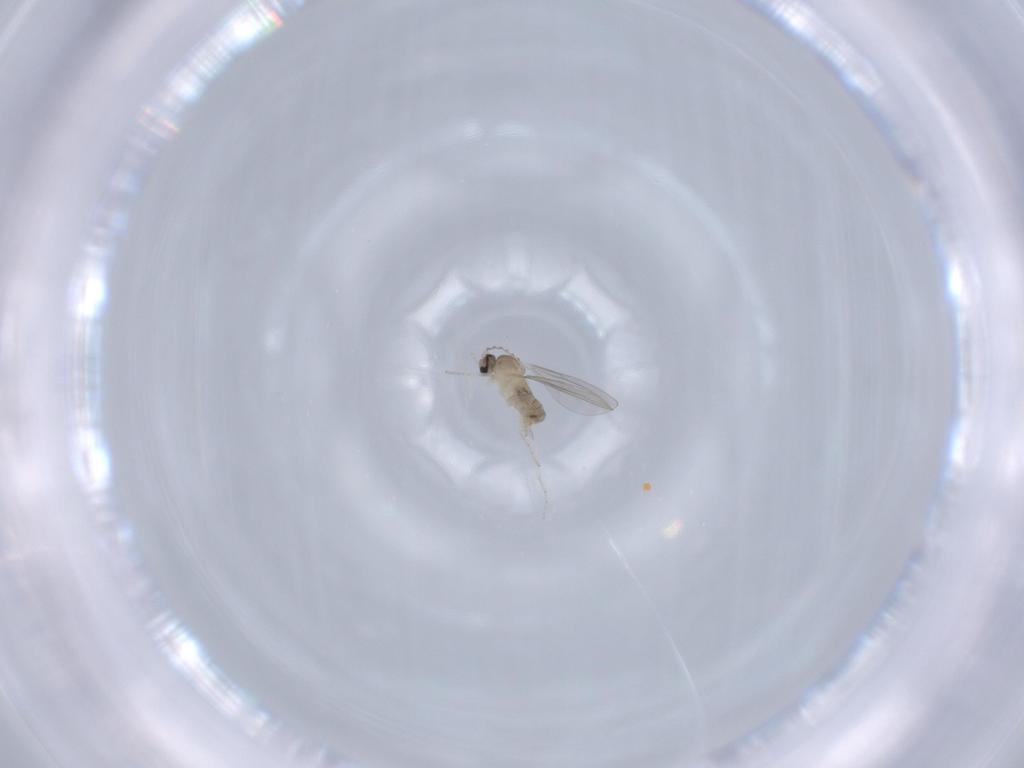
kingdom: Animalia
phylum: Arthropoda
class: Insecta
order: Diptera
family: Cecidomyiidae
